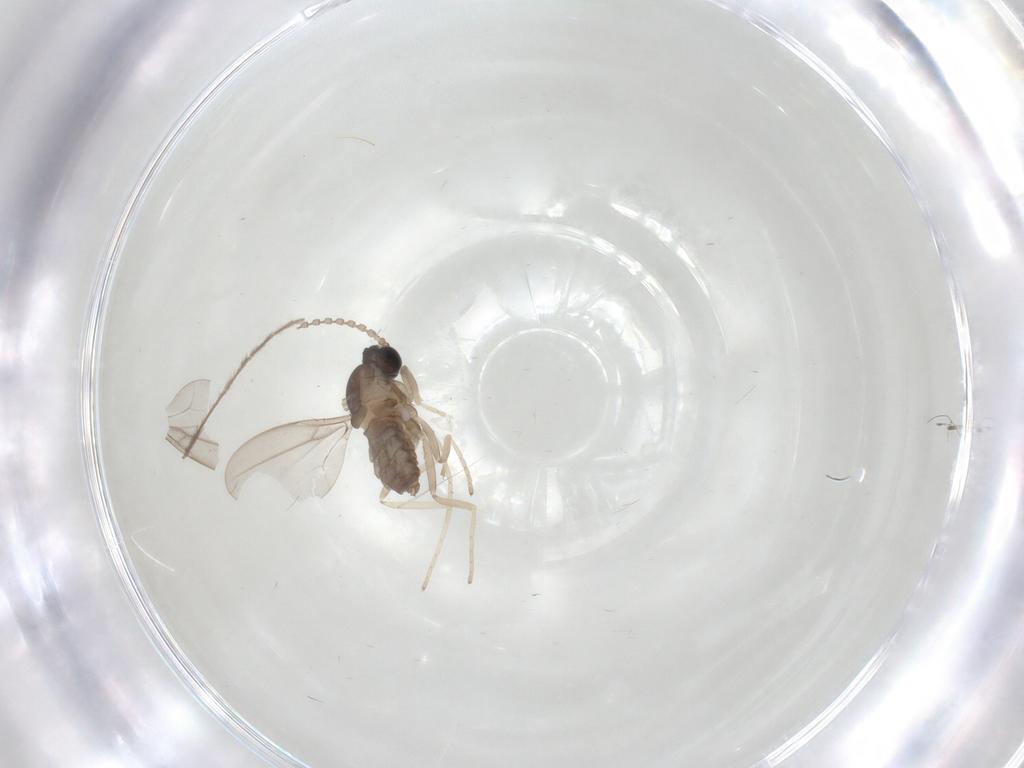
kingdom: Animalia
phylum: Arthropoda
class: Insecta
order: Diptera
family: Cecidomyiidae
